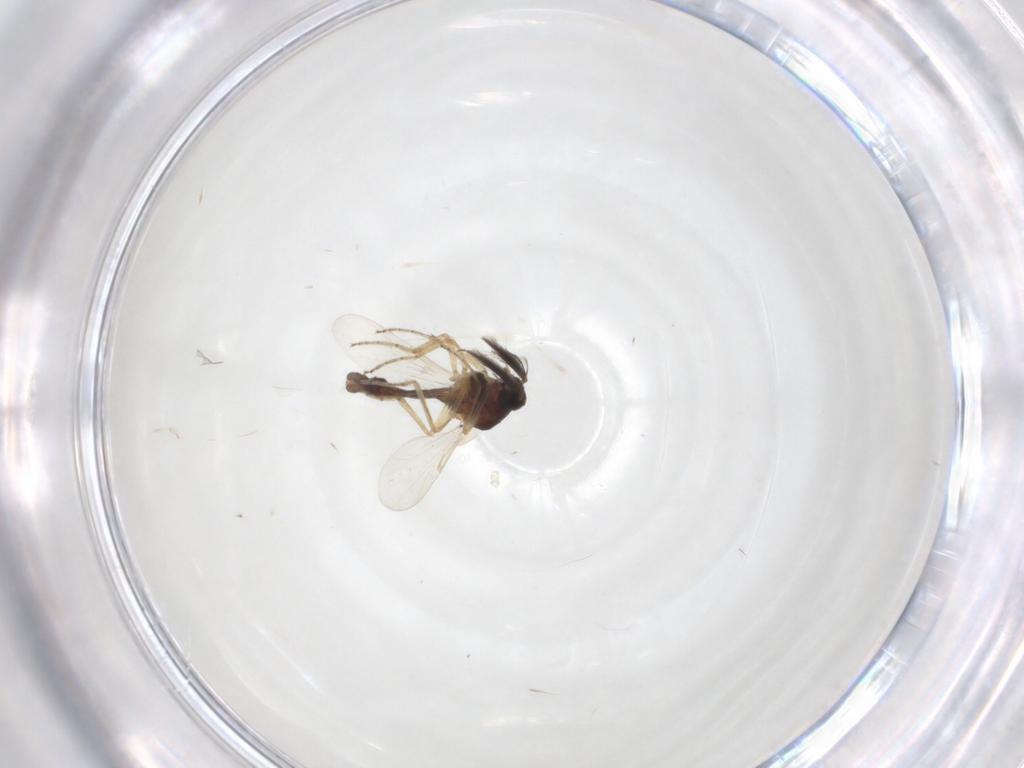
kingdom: Animalia
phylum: Arthropoda
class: Insecta
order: Diptera
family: Ceratopogonidae
